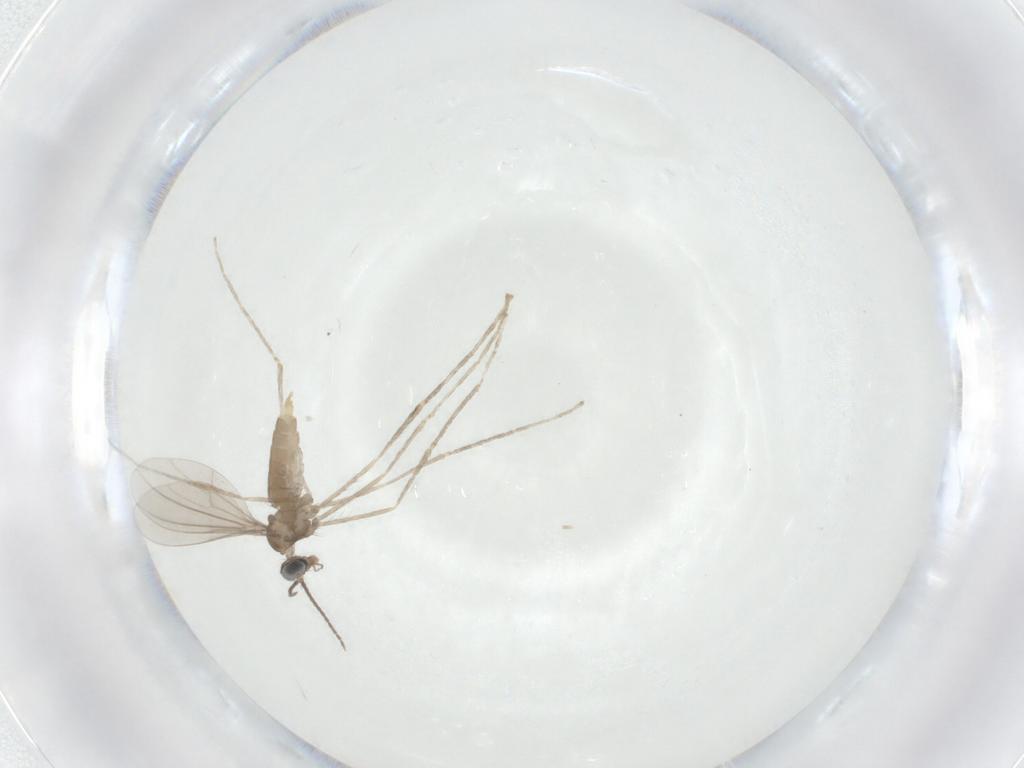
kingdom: Animalia
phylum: Arthropoda
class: Insecta
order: Diptera
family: Cecidomyiidae
